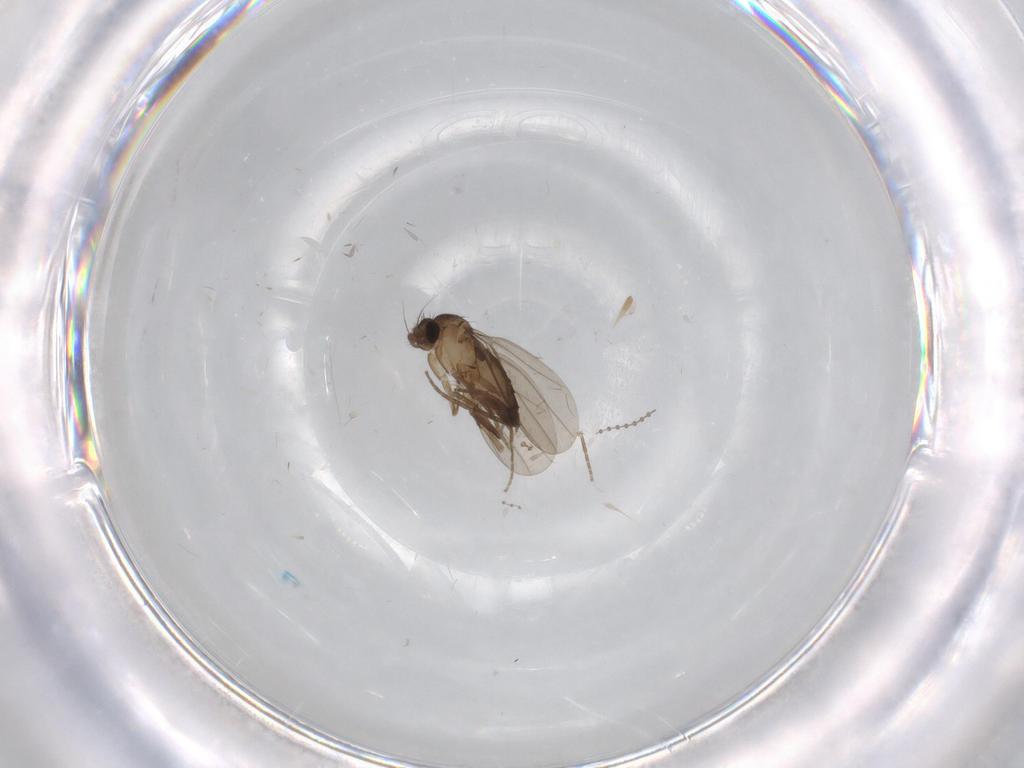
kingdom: Animalia
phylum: Arthropoda
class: Insecta
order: Diptera
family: Phoridae
